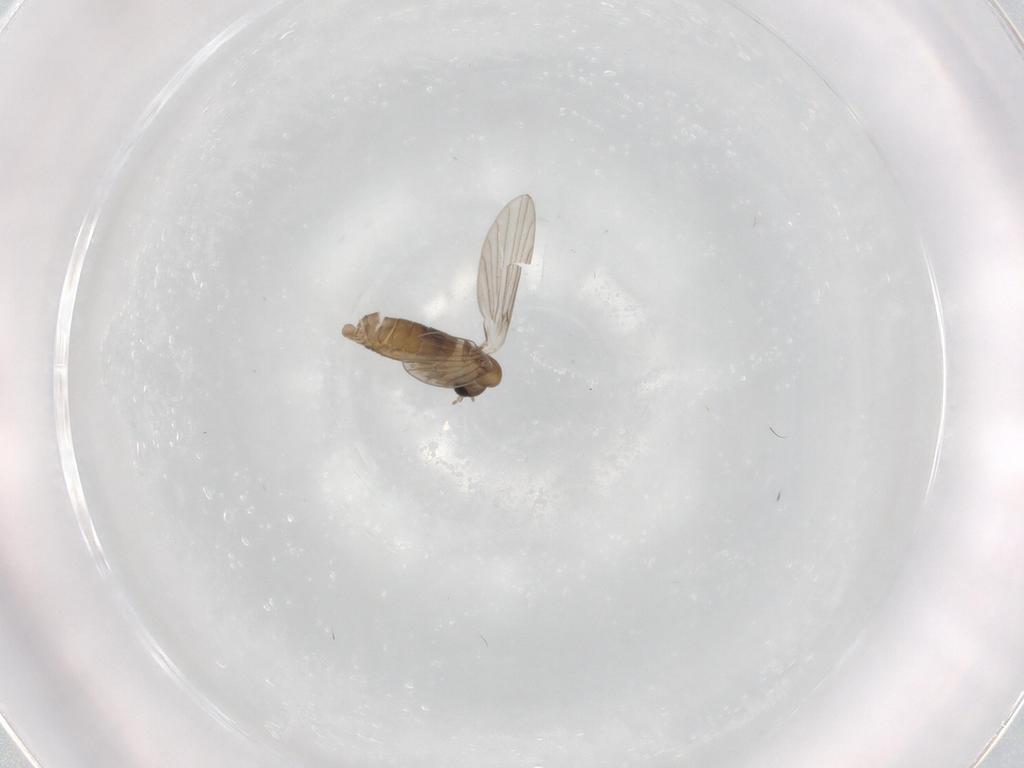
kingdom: Animalia
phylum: Arthropoda
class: Insecta
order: Diptera
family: Psychodidae
